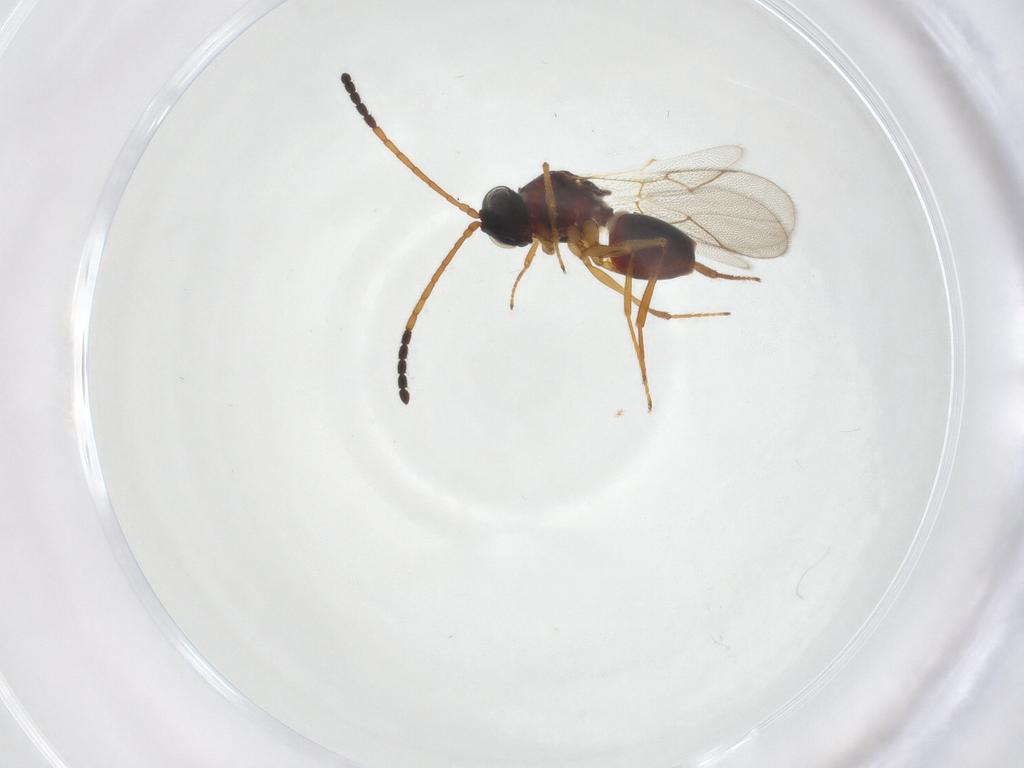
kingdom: Animalia
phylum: Arthropoda
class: Insecta
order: Hymenoptera
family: Figitidae
